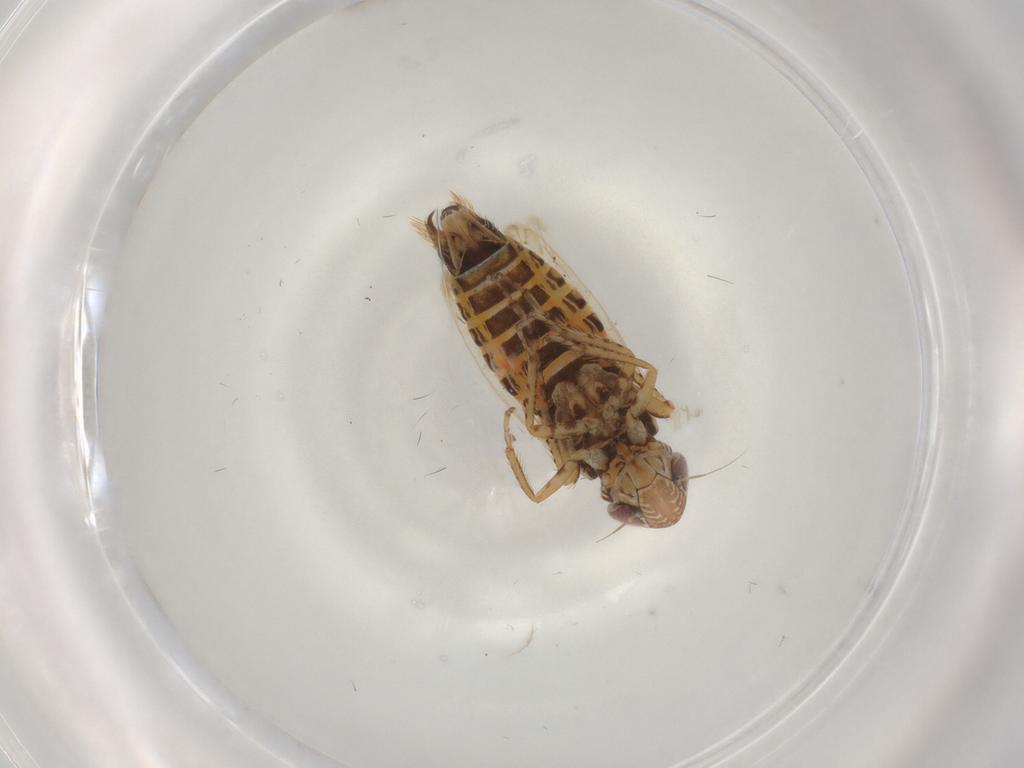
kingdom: Animalia
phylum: Arthropoda
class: Insecta
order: Hemiptera
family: Cicadellidae
